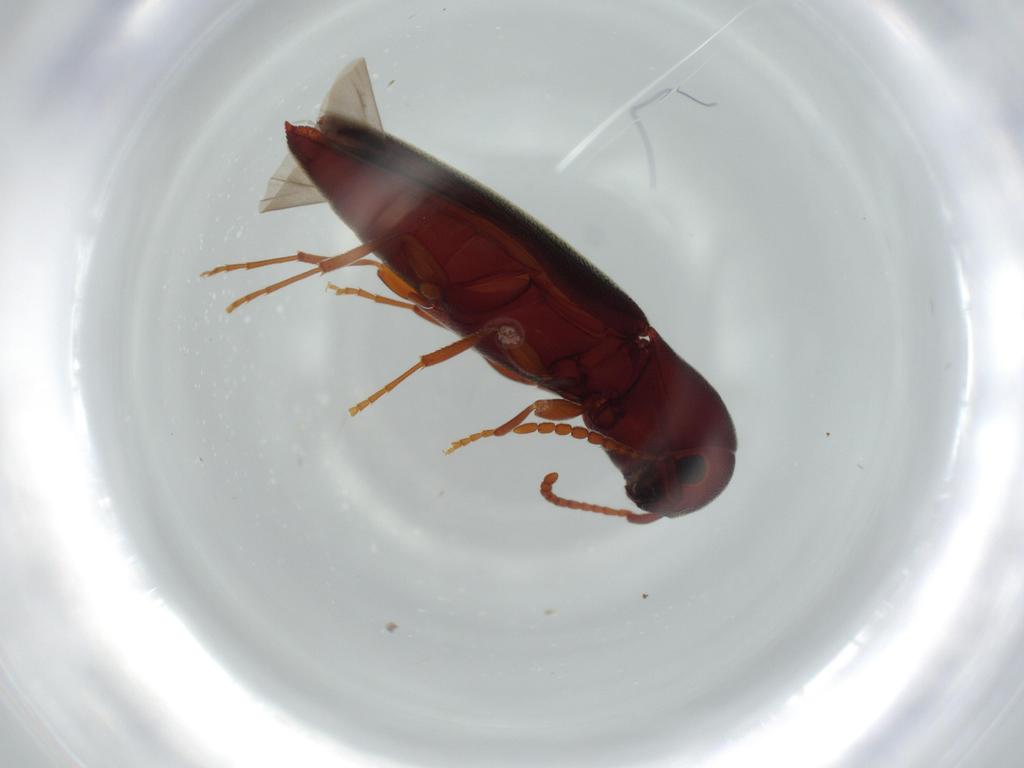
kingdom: Animalia
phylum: Arthropoda
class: Insecta
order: Coleoptera
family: Eucnemidae
